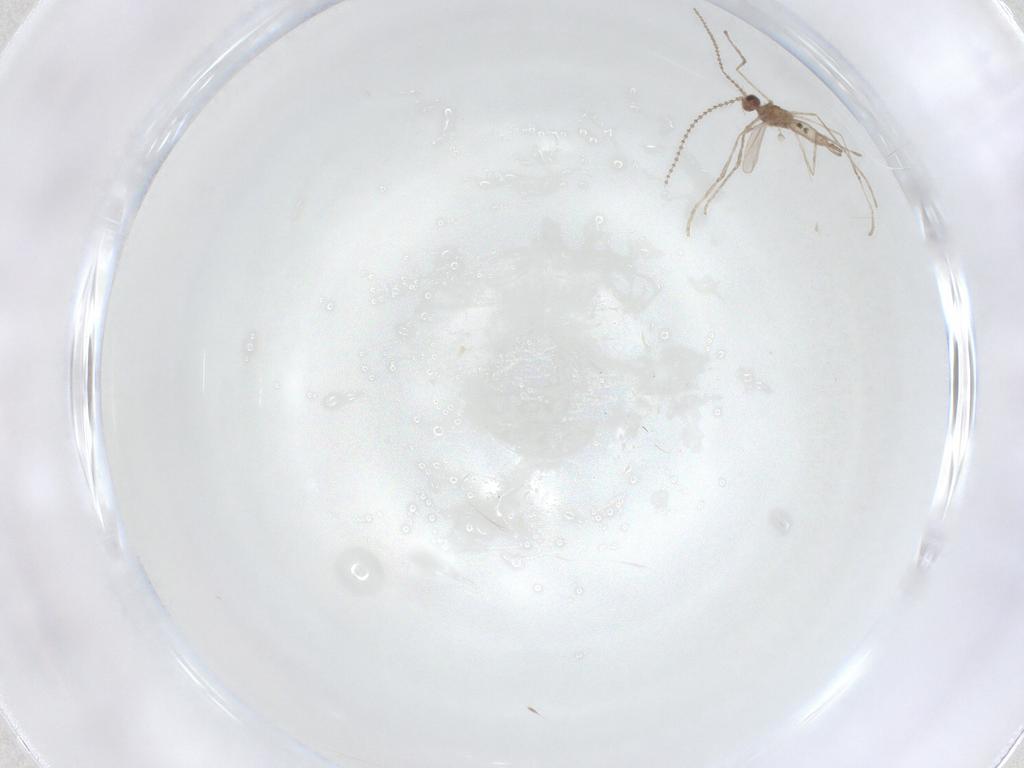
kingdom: Animalia
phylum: Arthropoda
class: Insecta
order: Diptera
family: Cecidomyiidae
